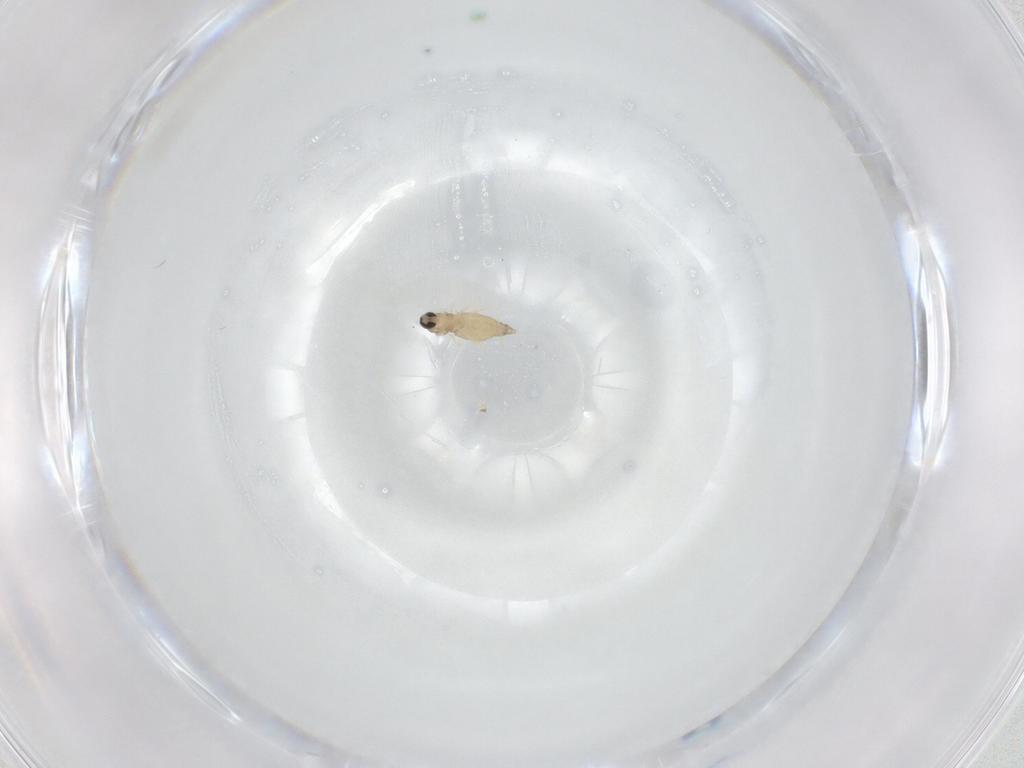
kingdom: Animalia
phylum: Arthropoda
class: Insecta
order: Diptera
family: Cecidomyiidae
